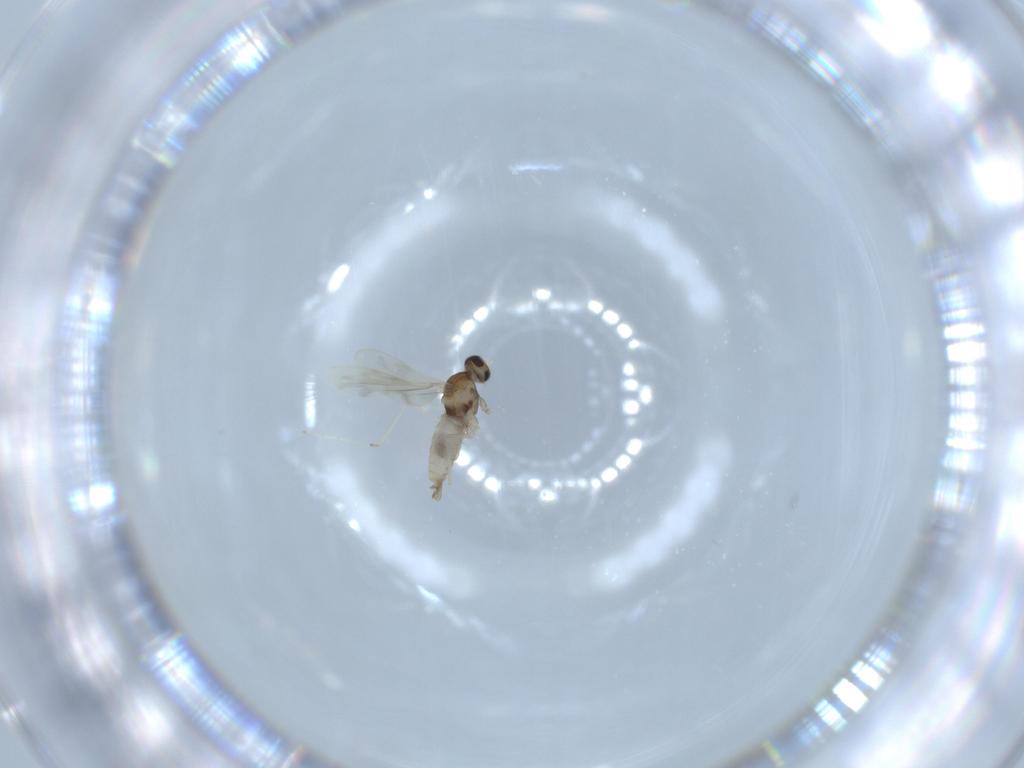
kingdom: Animalia
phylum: Arthropoda
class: Insecta
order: Diptera
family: Cecidomyiidae
